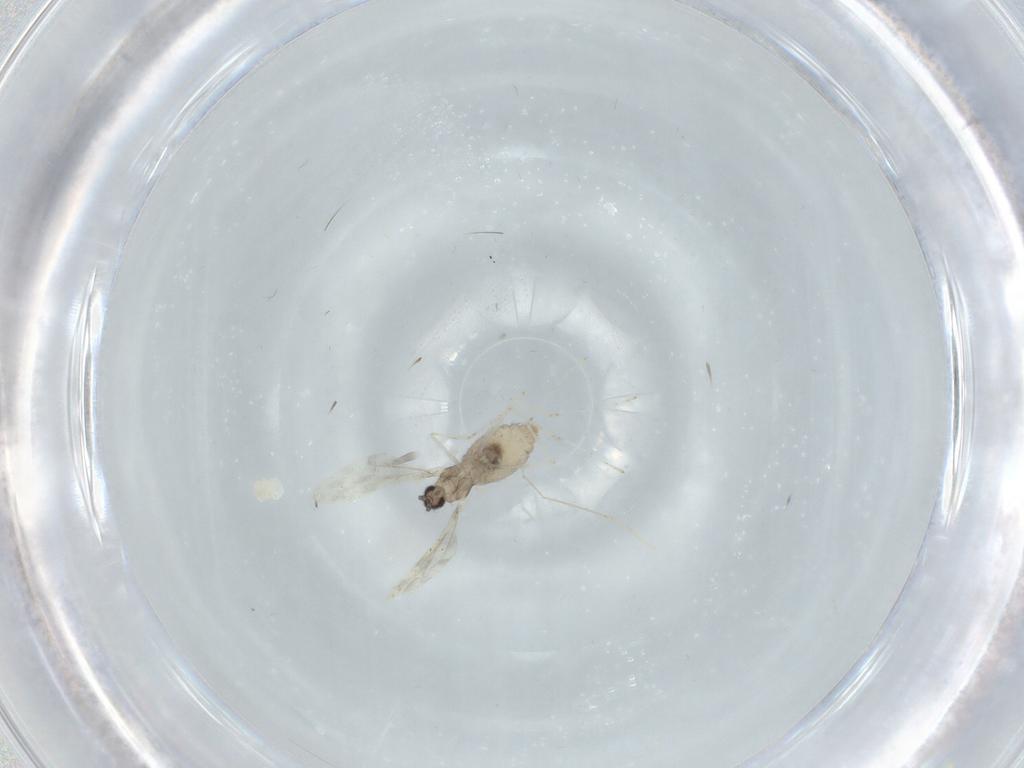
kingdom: Animalia
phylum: Arthropoda
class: Insecta
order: Diptera
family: Cecidomyiidae
